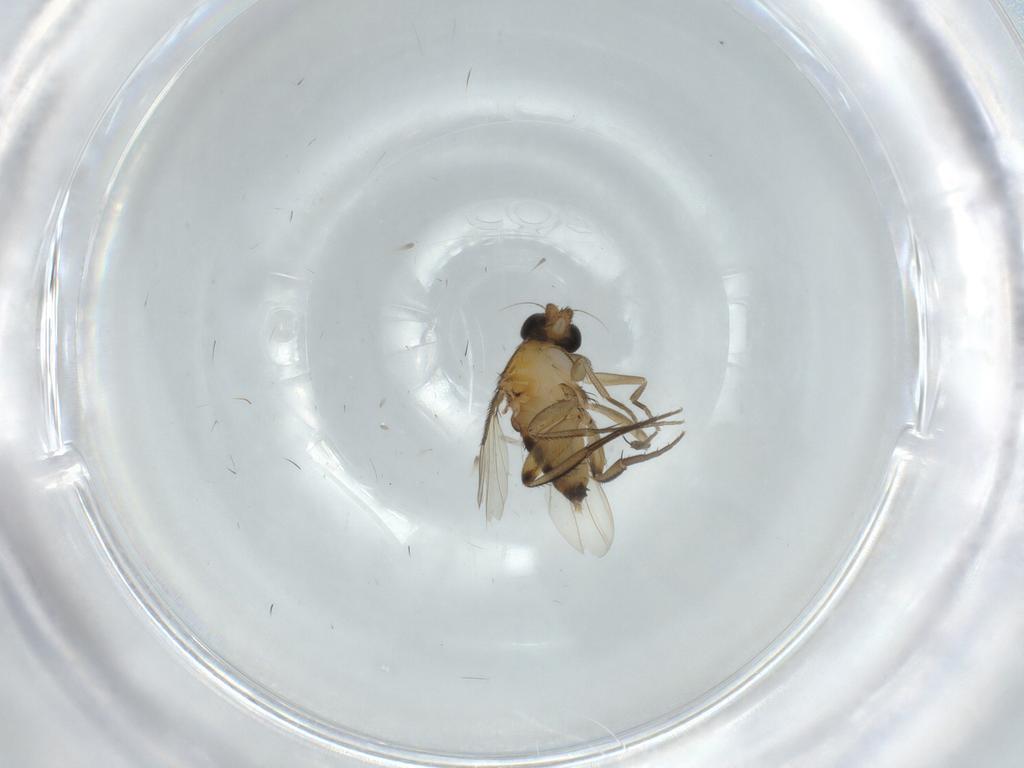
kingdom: Animalia
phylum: Arthropoda
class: Insecta
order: Diptera
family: Phoridae
